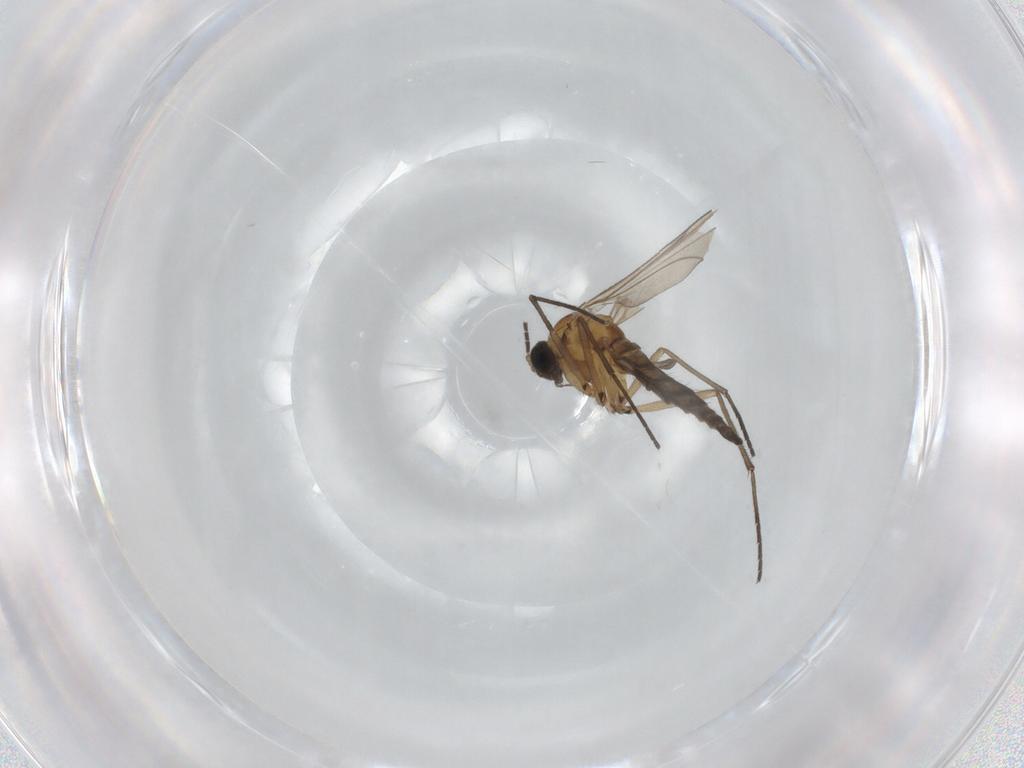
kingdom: Animalia
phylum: Arthropoda
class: Insecta
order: Diptera
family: Sciaridae
